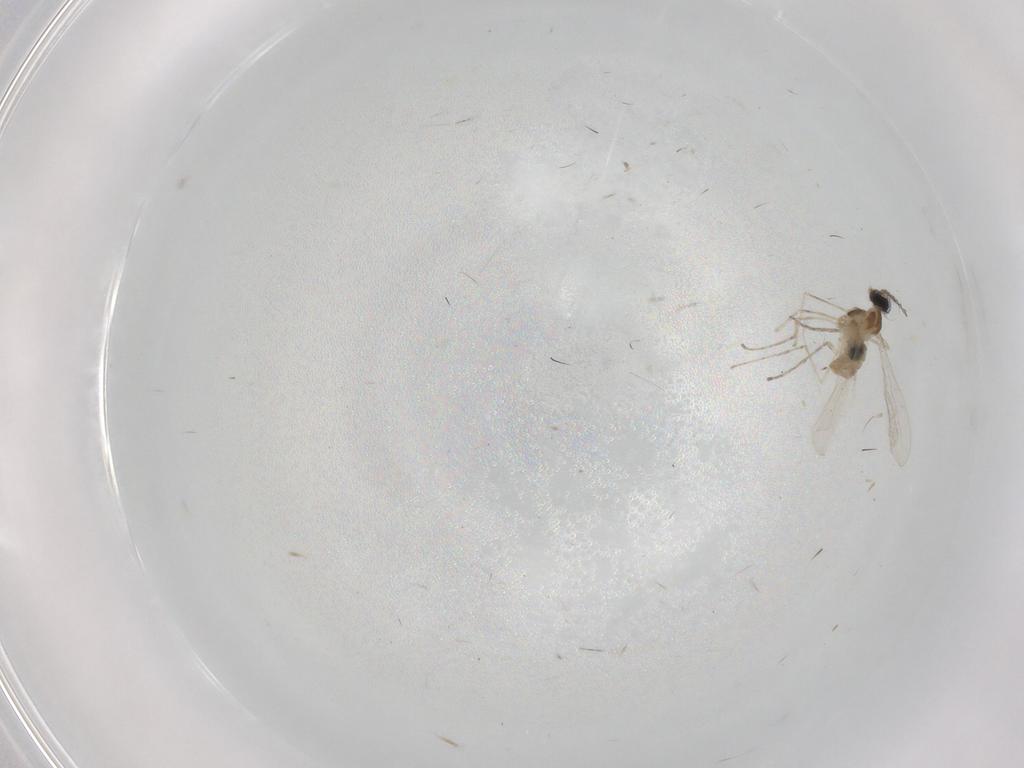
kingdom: Animalia
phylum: Arthropoda
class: Insecta
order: Diptera
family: Cecidomyiidae
